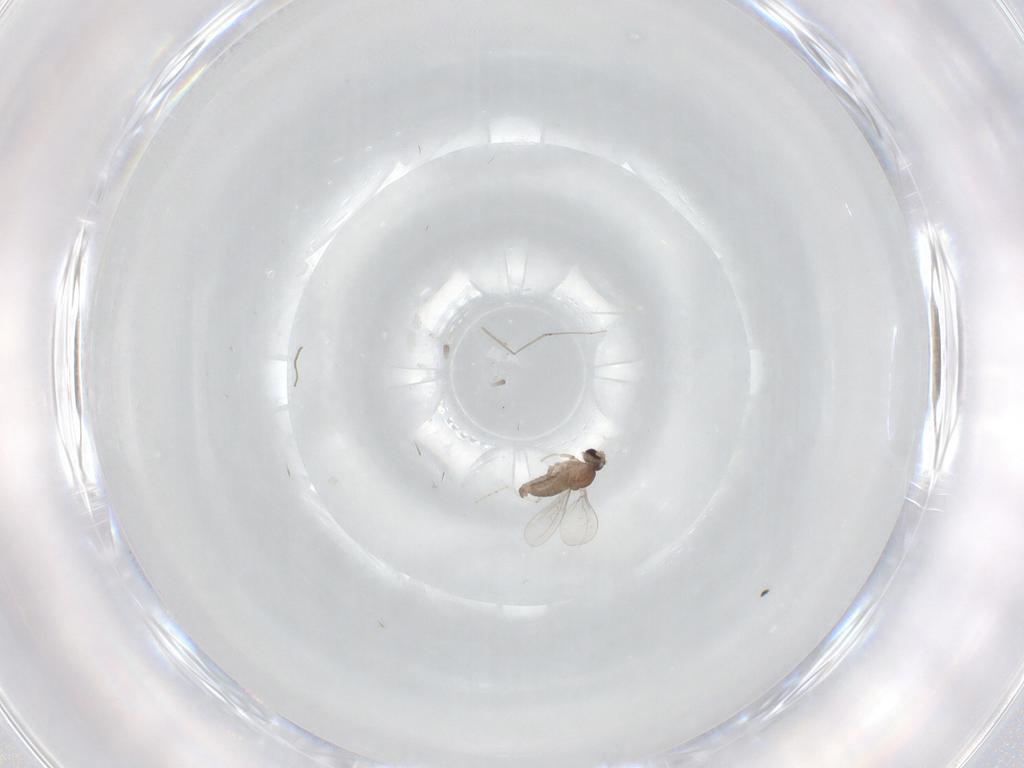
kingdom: Animalia
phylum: Arthropoda
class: Insecta
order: Diptera
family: Cecidomyiidae
